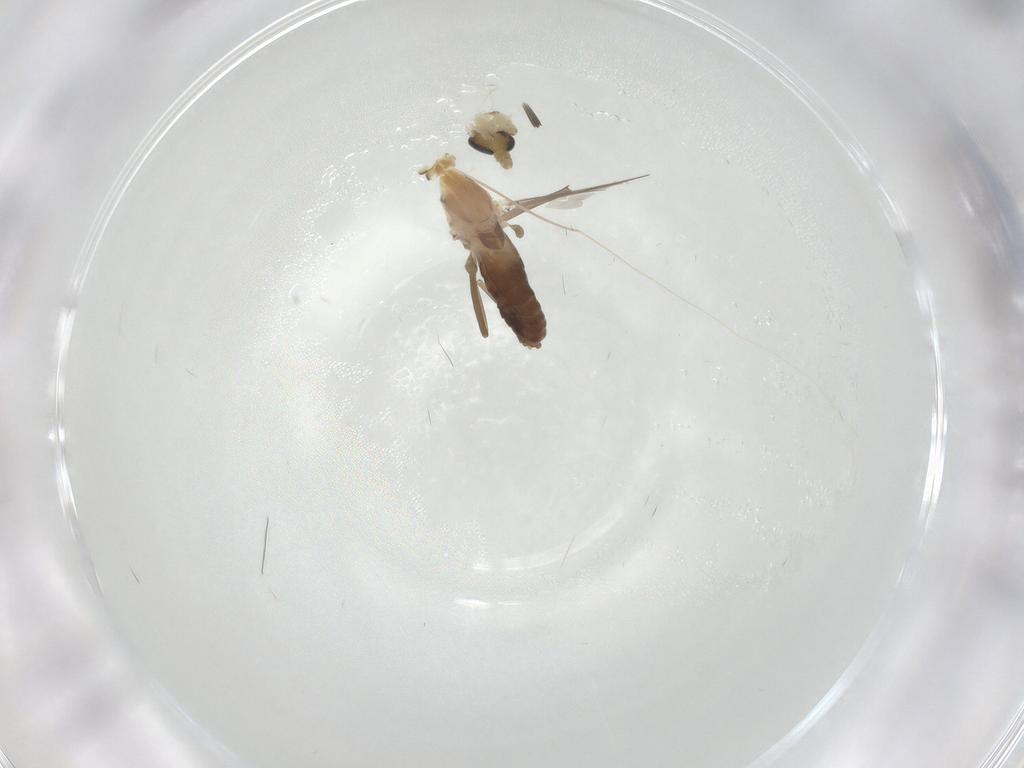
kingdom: Animalia
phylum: Arthropoda
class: Insecta
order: Diptera
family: Chironomidae
